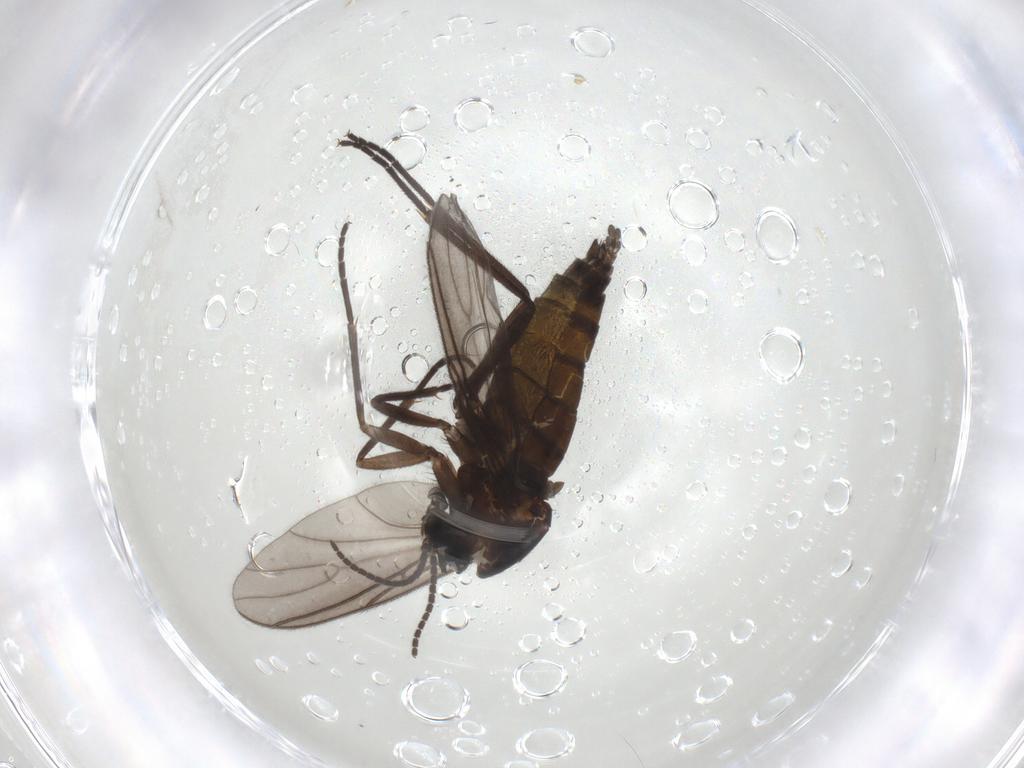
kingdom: Animalia
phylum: Arthropoda
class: Insecta
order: Diptera
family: Sciaridae
